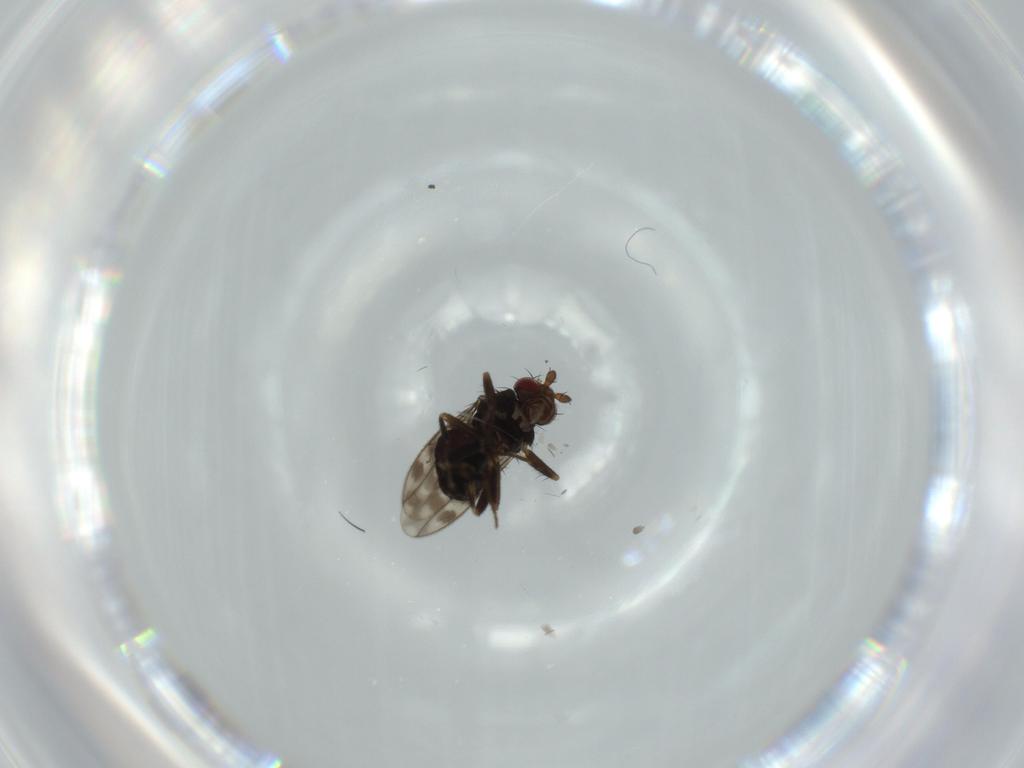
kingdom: Animalia
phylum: Arthropoda
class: Insecta
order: Diptera
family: Sphaeroceridae
